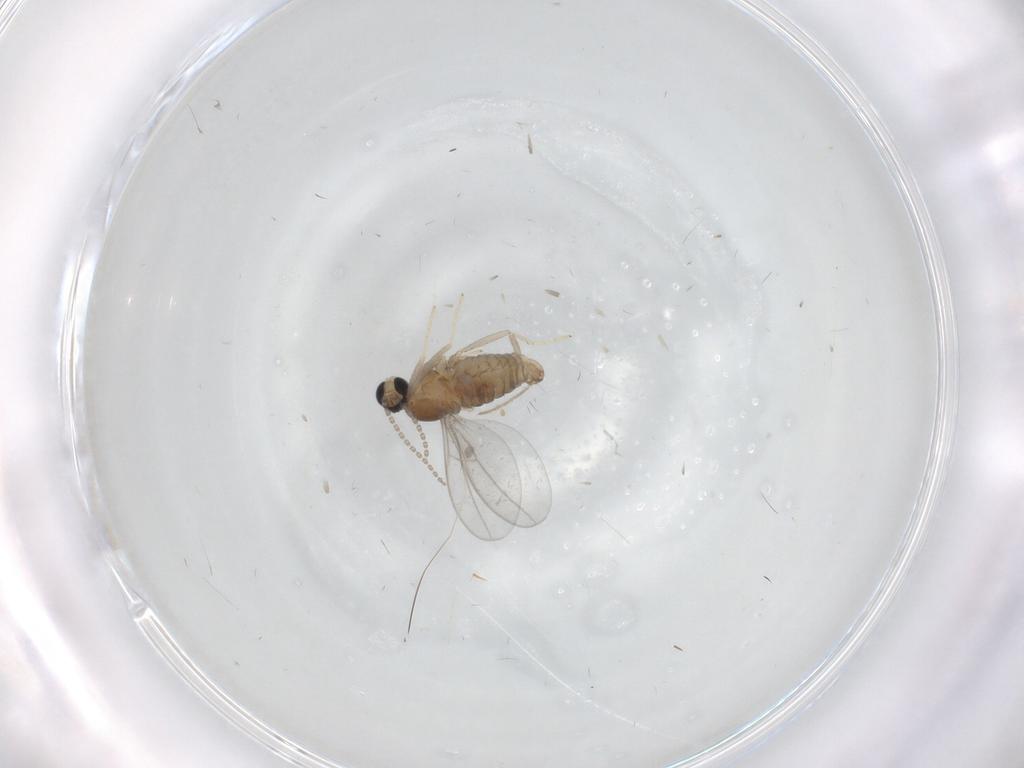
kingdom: Animalia
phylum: Arthropoda
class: Insecta
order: Diptera
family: Cecidomyiidae
